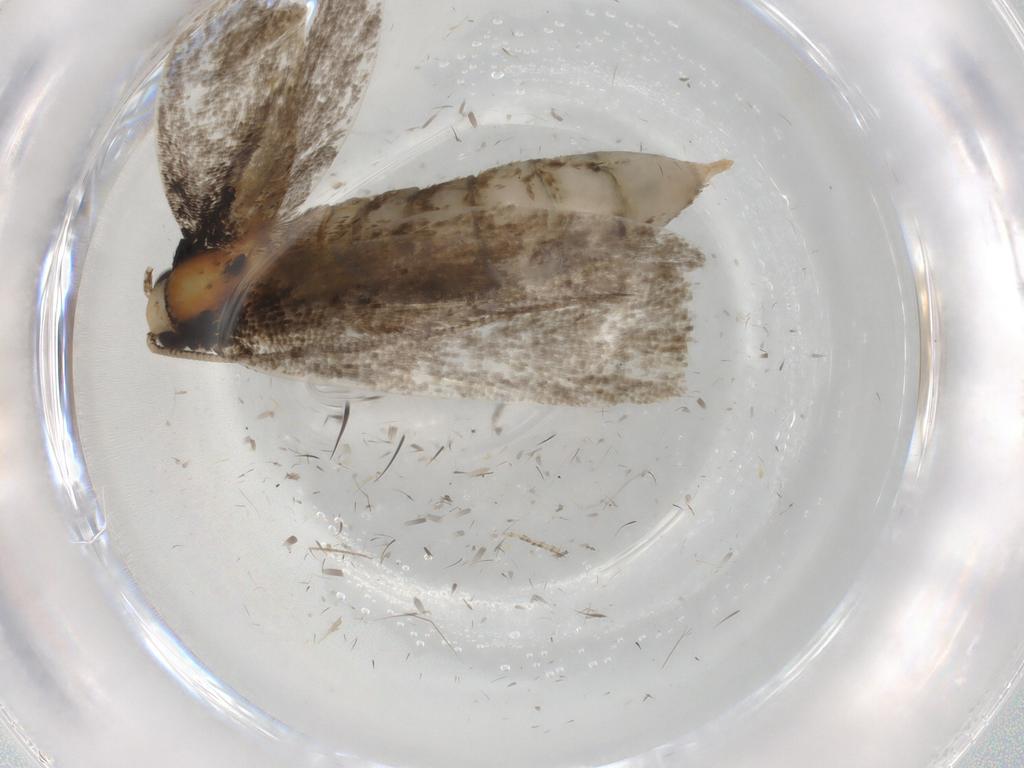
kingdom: Animalia
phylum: Arthropoda
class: Insecta
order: Lepidoptera
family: Tineidae
